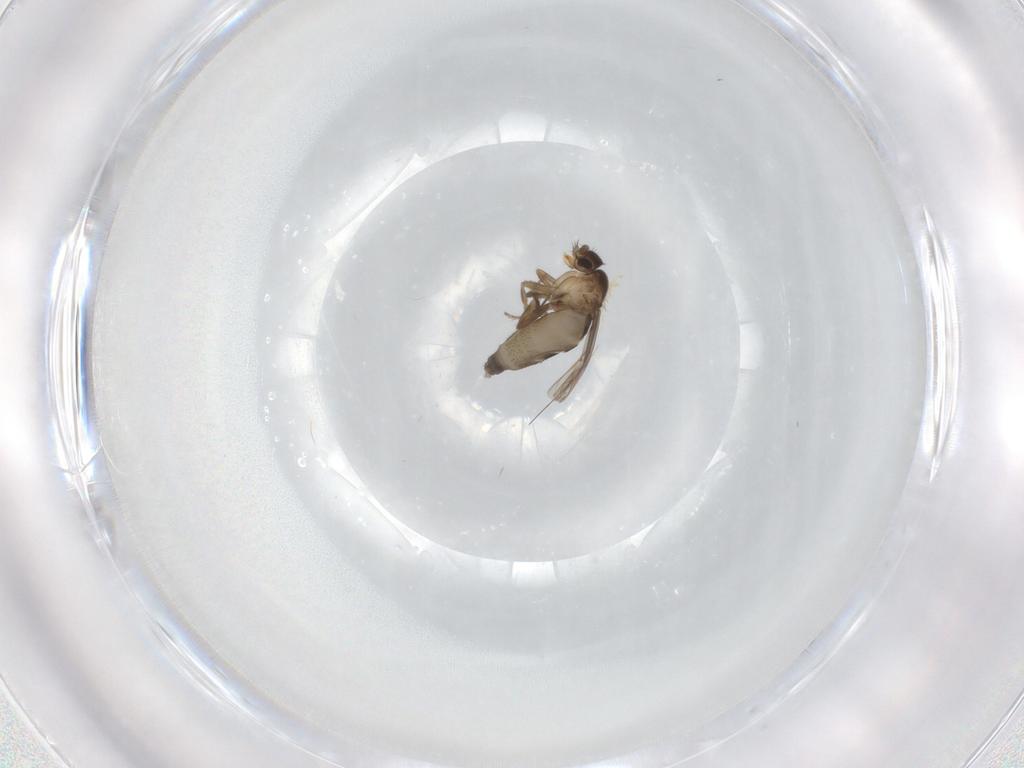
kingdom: Animalia
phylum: Arthropoda
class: Insecta
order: Diptera
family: Phoridae
